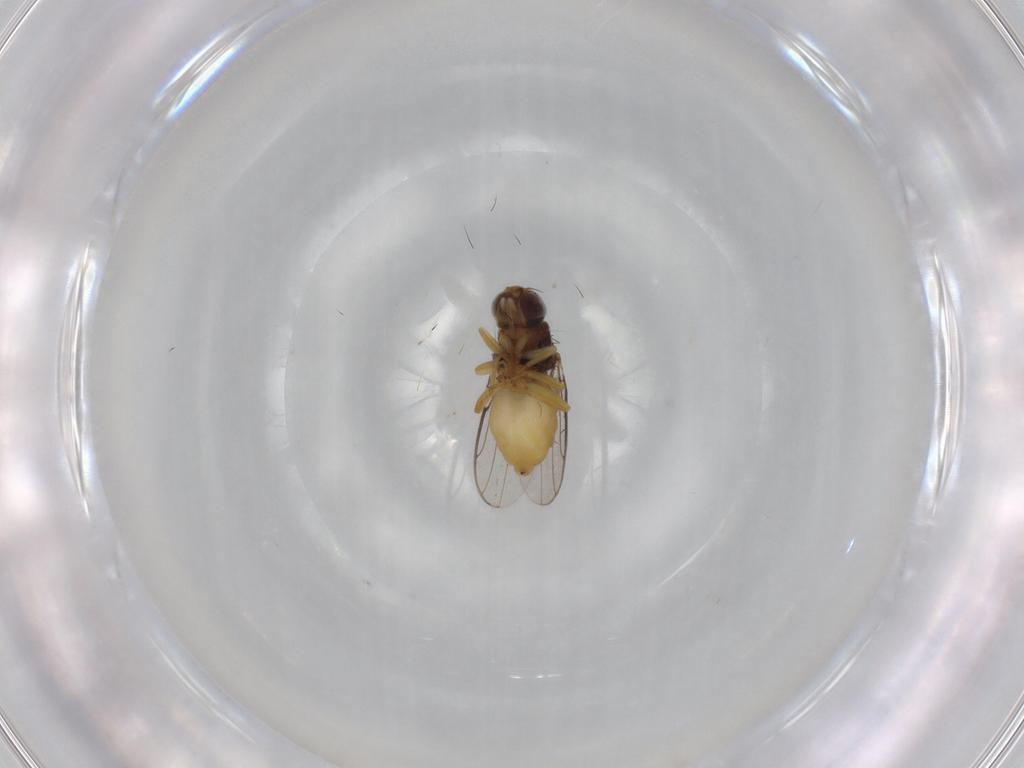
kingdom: Animalia
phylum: Arthropoda
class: Insecta
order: Diptera
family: Chloropidae
